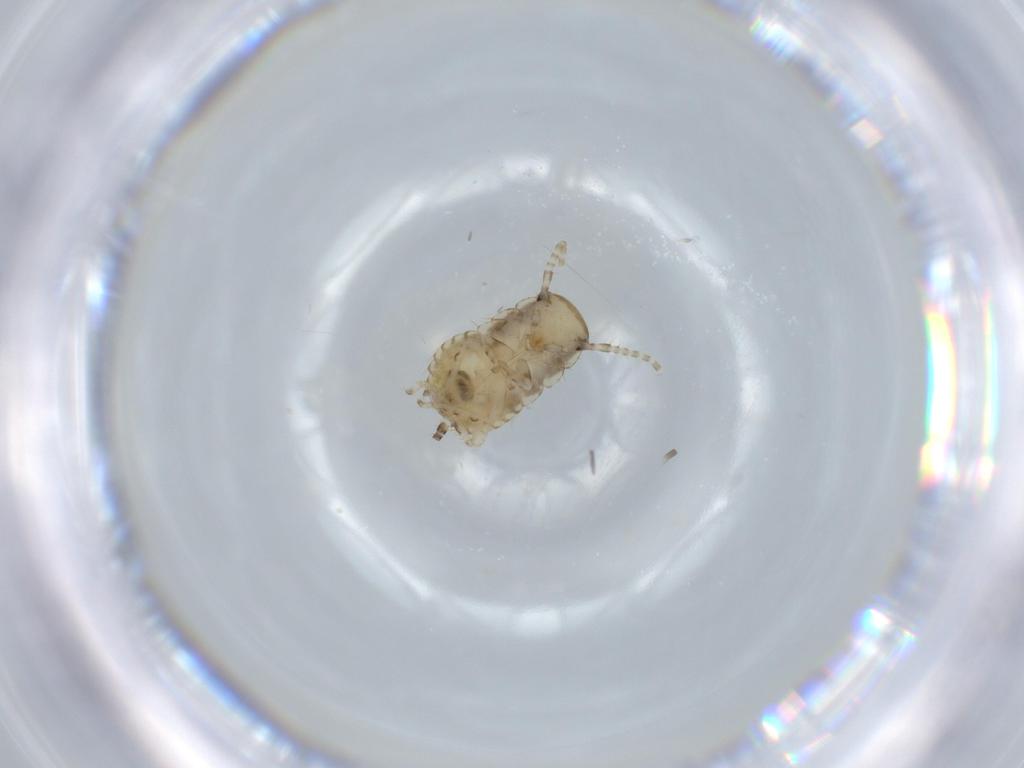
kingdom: Animalia
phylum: Arthropoda
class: Insecta
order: Blattodea
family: Ectobiidae
